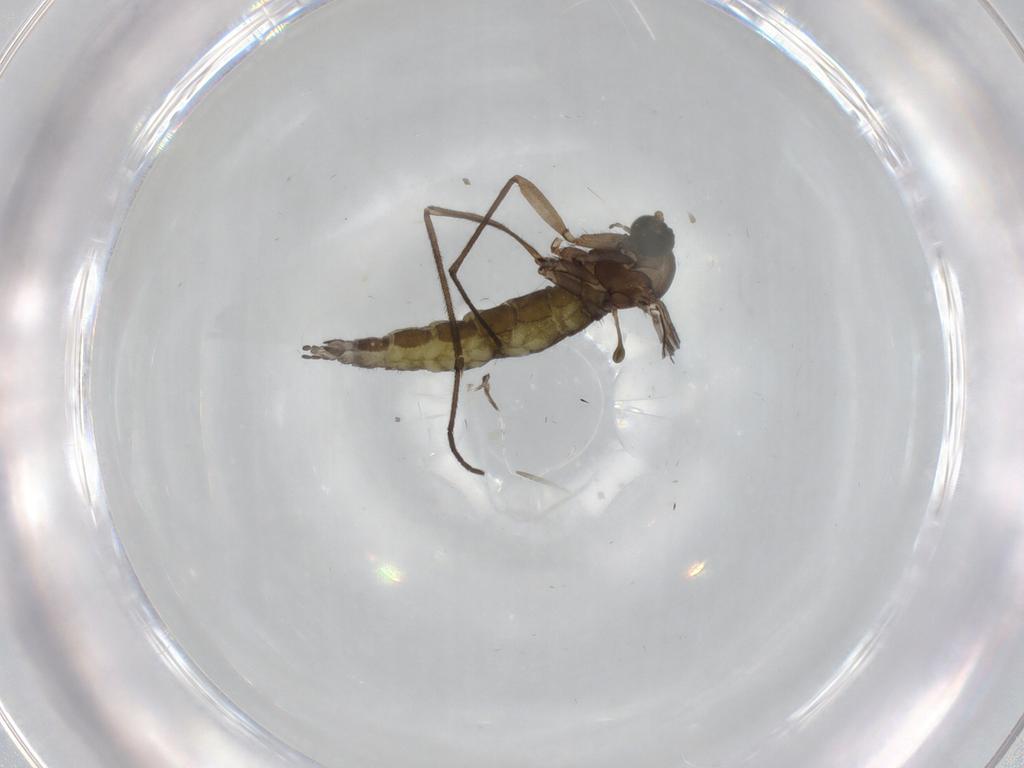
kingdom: Animalia
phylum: Arthropoda
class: Insecta
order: Diptera
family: Sciaridae
